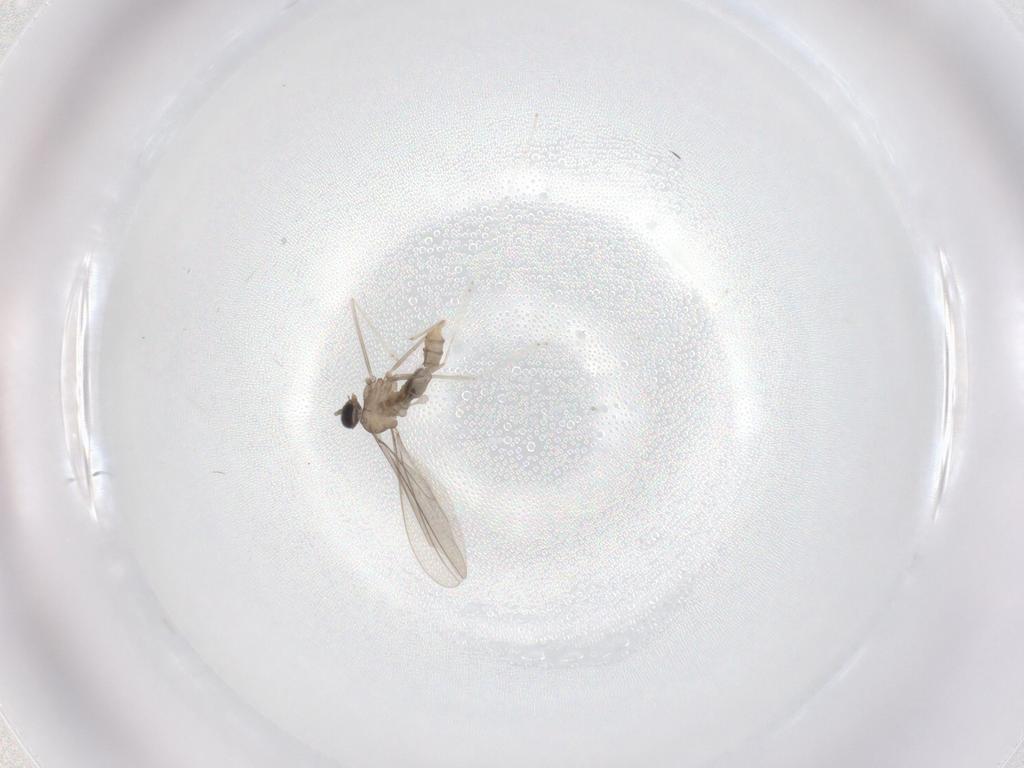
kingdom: Animalia
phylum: Arthropoda
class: Insecta
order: Diptera
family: Cecidomyiidae
